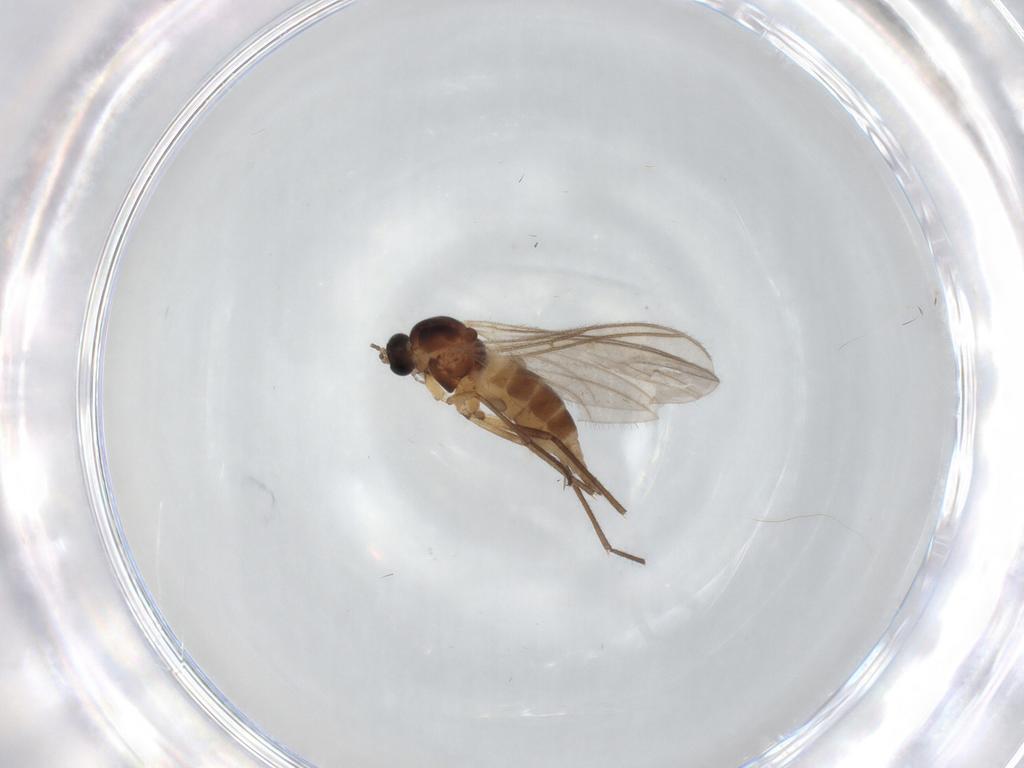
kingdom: Animalia
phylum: Arthropoda
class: Insecta
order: Diptera
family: Sciaridae
